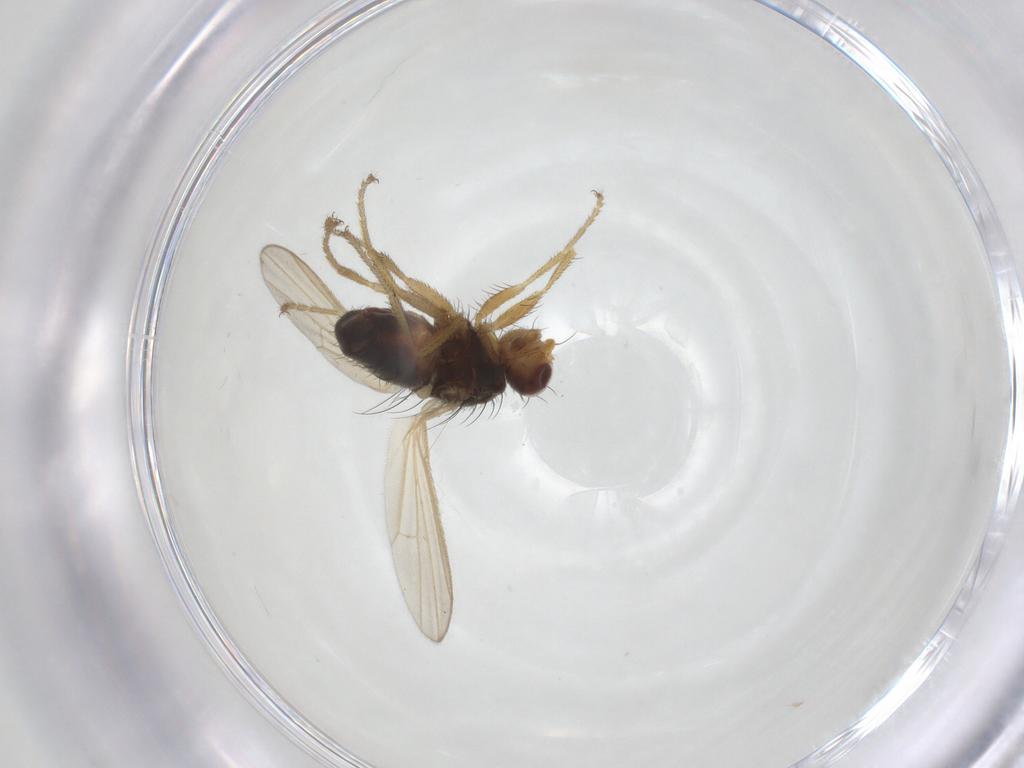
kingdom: Animalia
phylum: Arthropoda
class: Insecta
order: Diptera
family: Heleomyzidae
